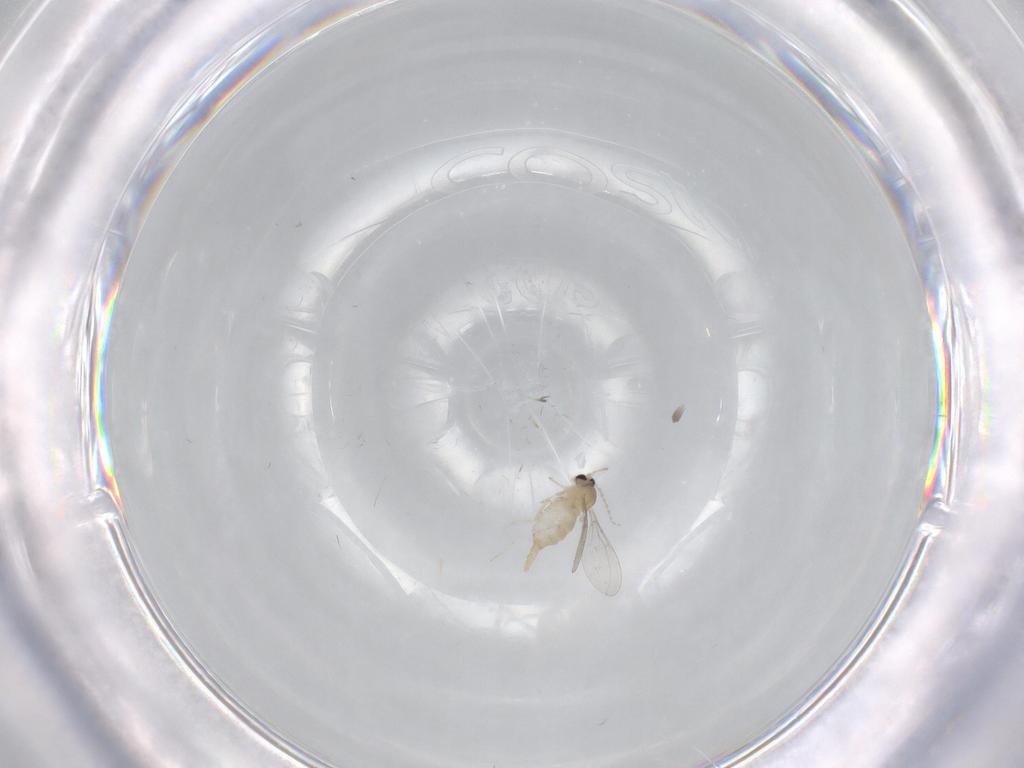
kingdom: Animalia
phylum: Arthropoda
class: Insecta
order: Diptera
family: Cecidomyiidae
